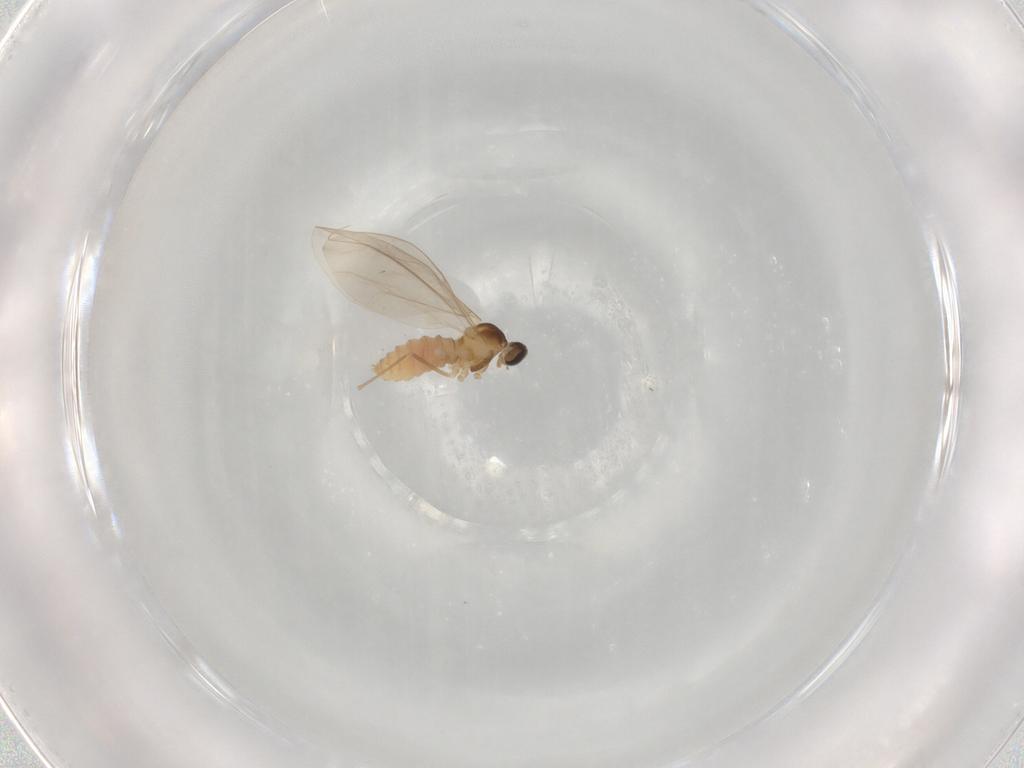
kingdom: Animalia
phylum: Arthropoda
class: Insecta
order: Diptera
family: Cecidomyiidae
